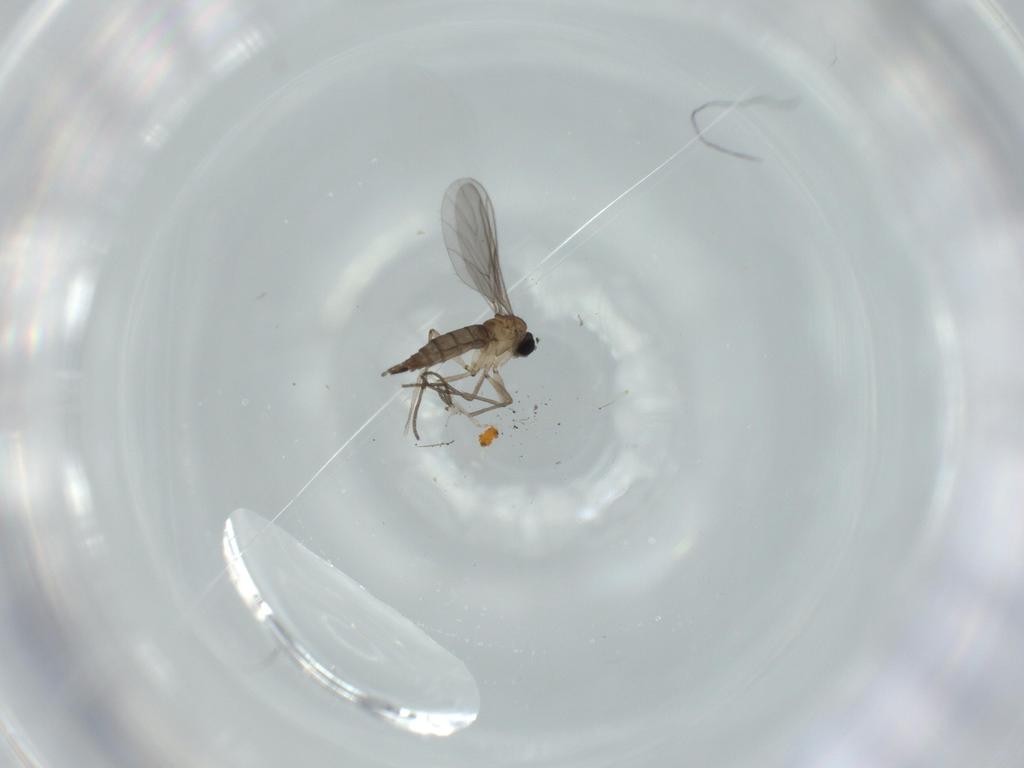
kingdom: Animalia
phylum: Arthropoda
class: Insecta
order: Diptera
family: Sciaridae
